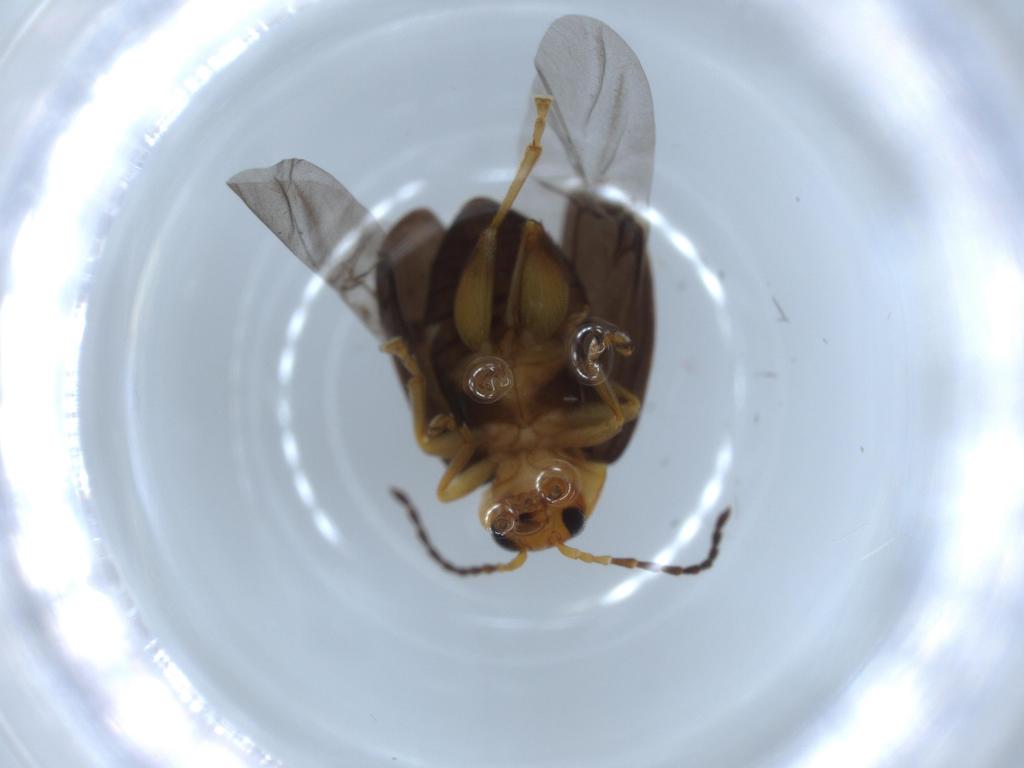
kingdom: Animalia
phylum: Arthropoda
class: Insecta
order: Coleoptera
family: Chrysomelidae
